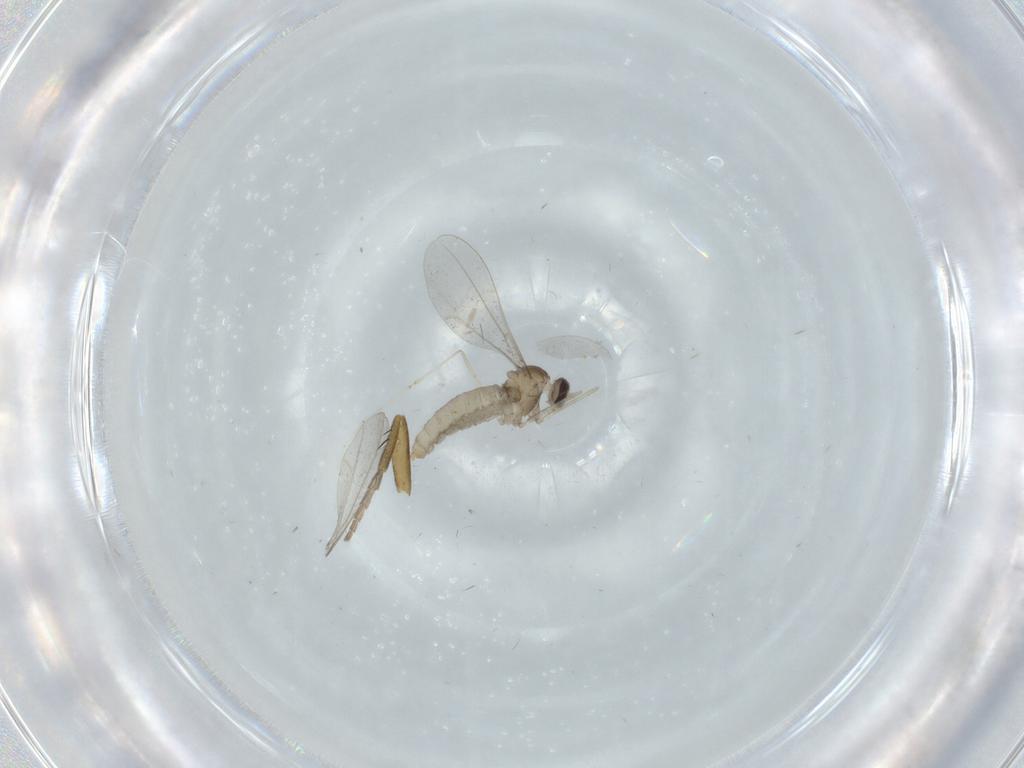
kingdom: Animalia
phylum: Arthropoda
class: Insecta
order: Diptera
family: Cecidomyiidae
